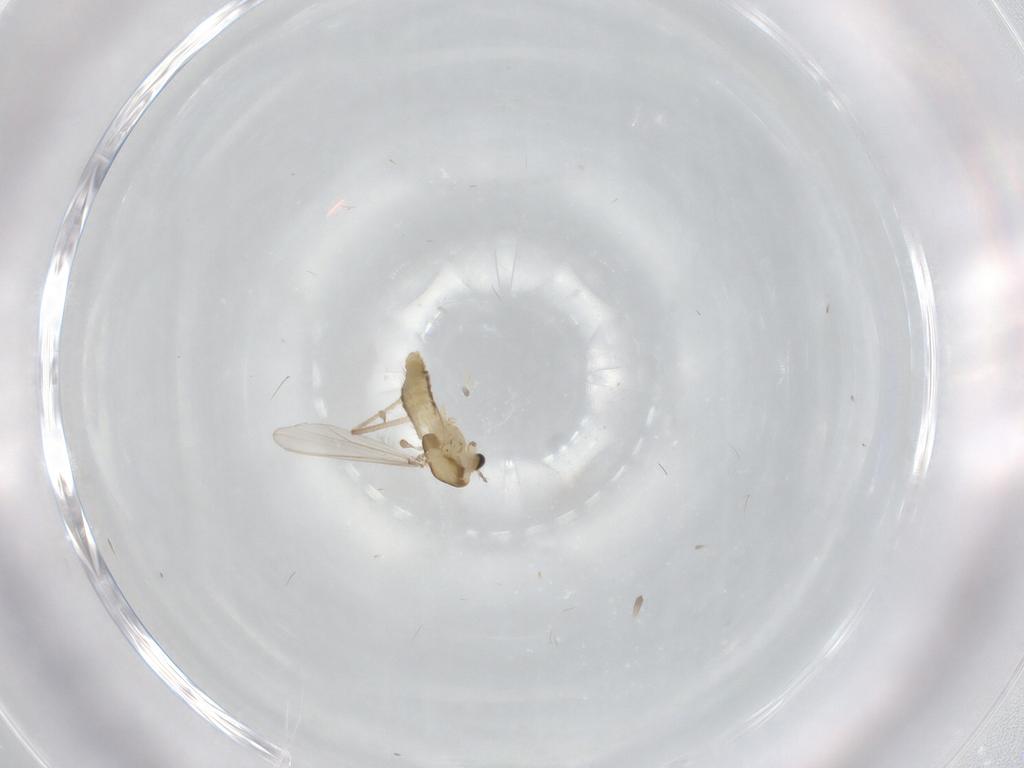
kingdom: Animalia
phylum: Arthropoda
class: Insecta
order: Diptera
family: Chironomidae
